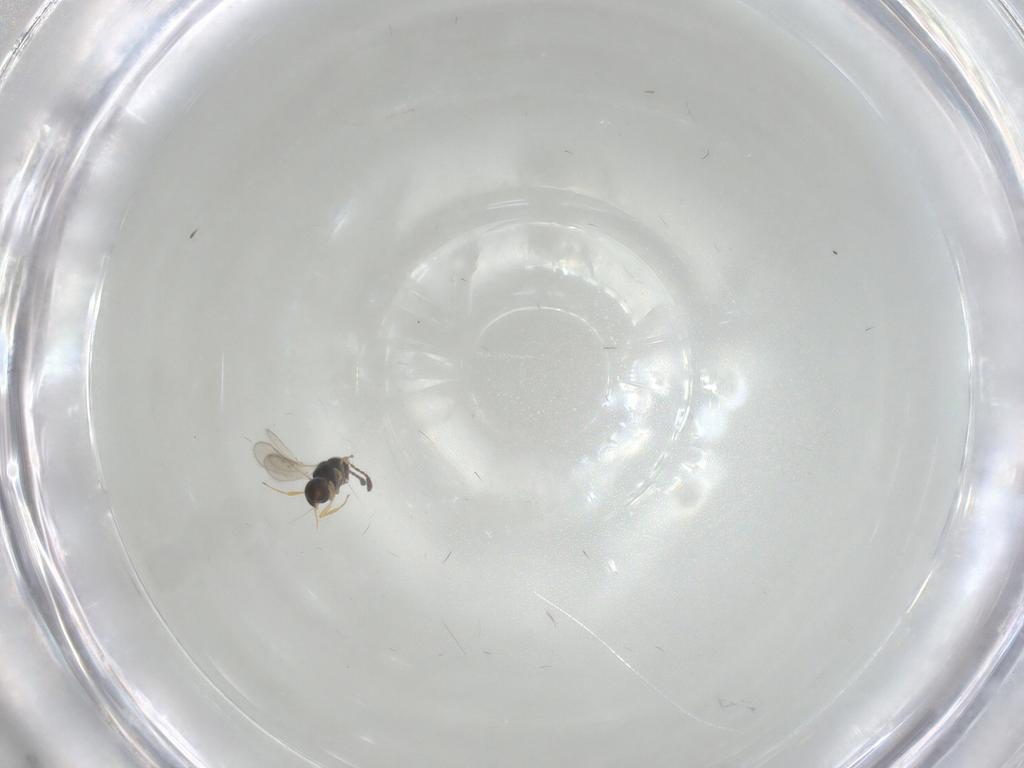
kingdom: Animalia
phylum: Arthropoda
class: Insecta
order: Hymenoptera
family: Scelionidae
